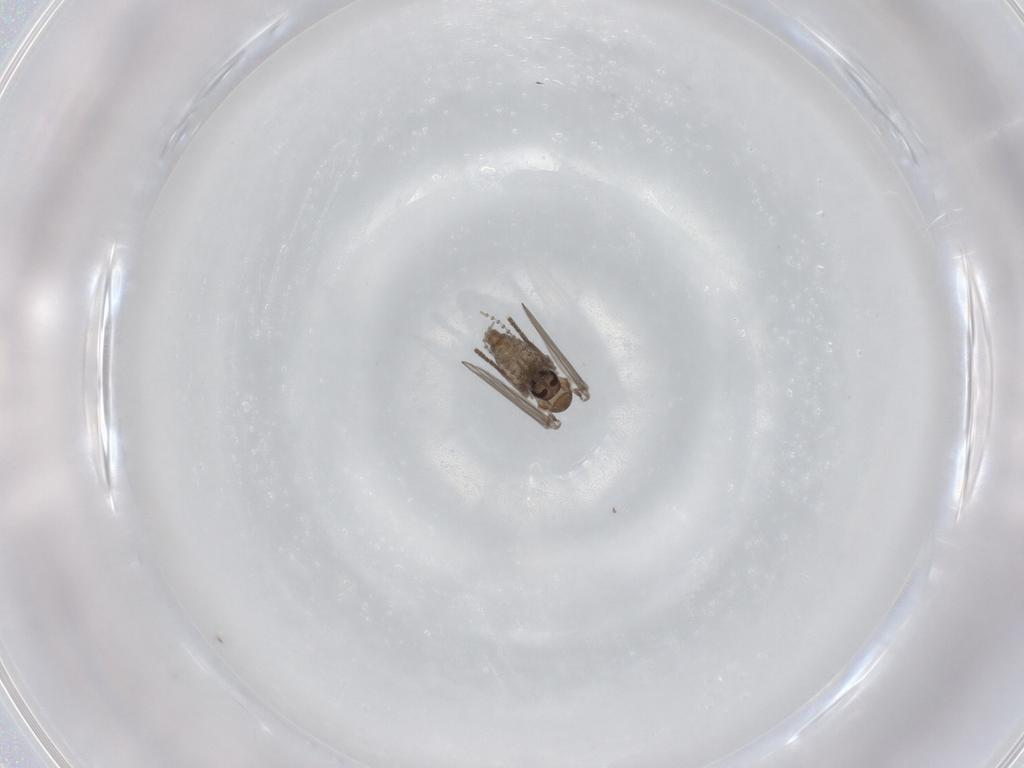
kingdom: Animalia
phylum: Arthropoda
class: Insecta
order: Diptera
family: Psychodidae
